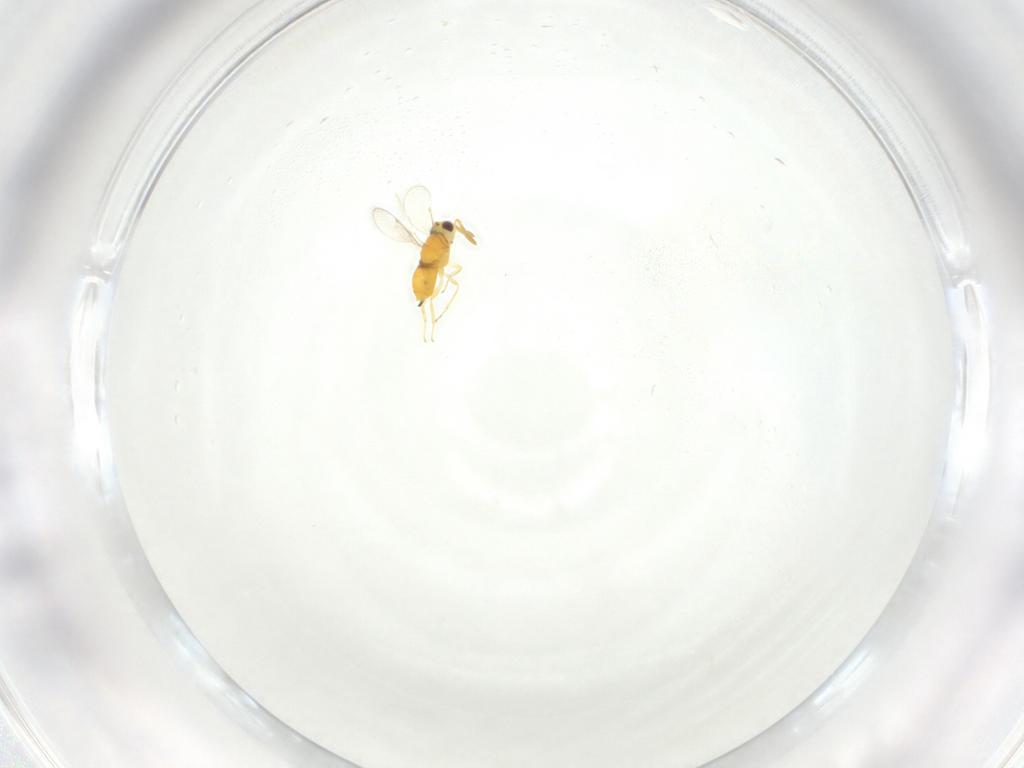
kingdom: Animalia
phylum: Arthropoda
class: Insecta
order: Hymenoptera
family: Aphelinidae
